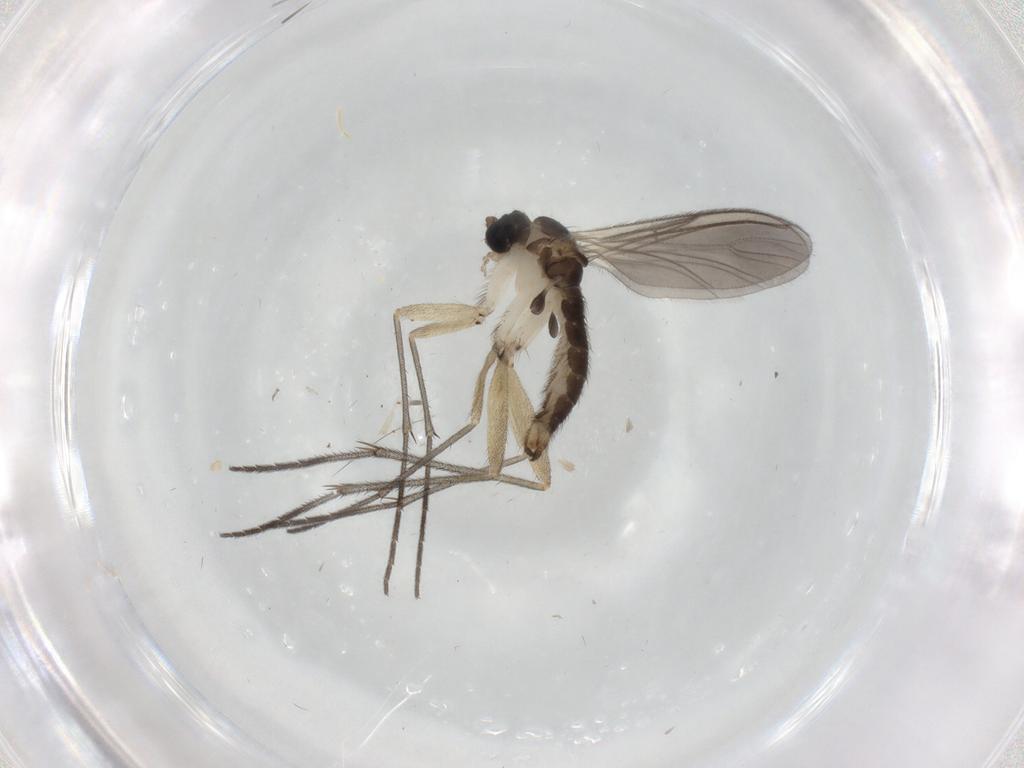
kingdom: Animalia
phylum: Arthropoda
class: Insecta
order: Diptera
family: Sciaridae
